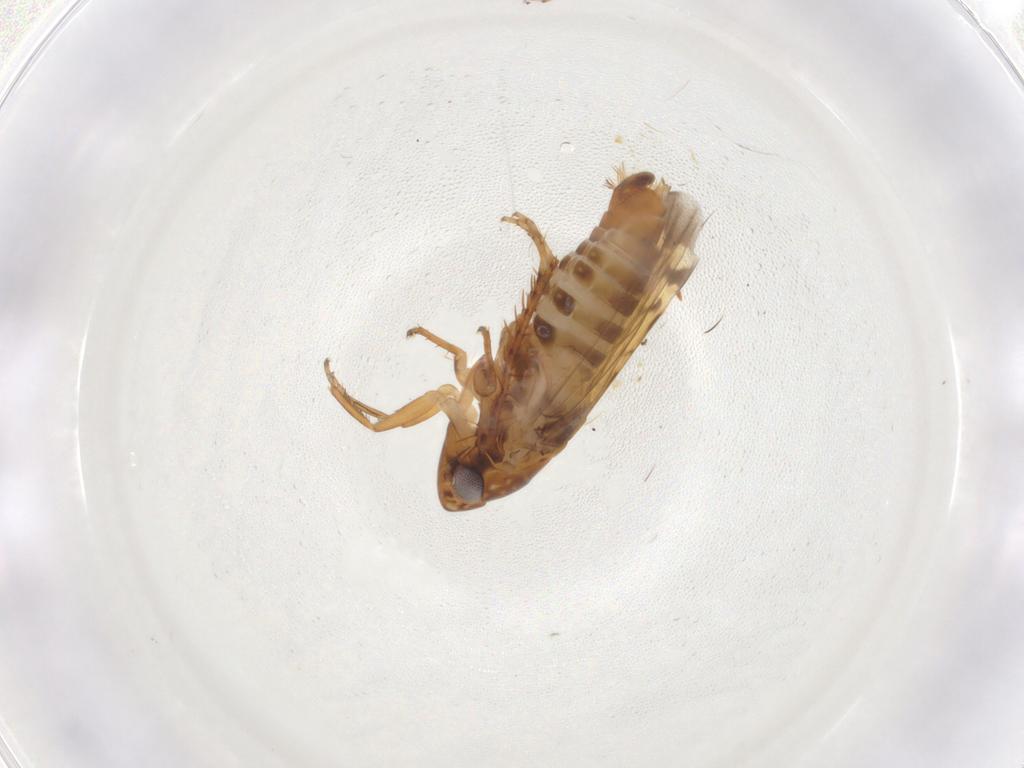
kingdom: Animalia
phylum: Arthropoda
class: Insecta
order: Hemiptera
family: Cicadellidae
